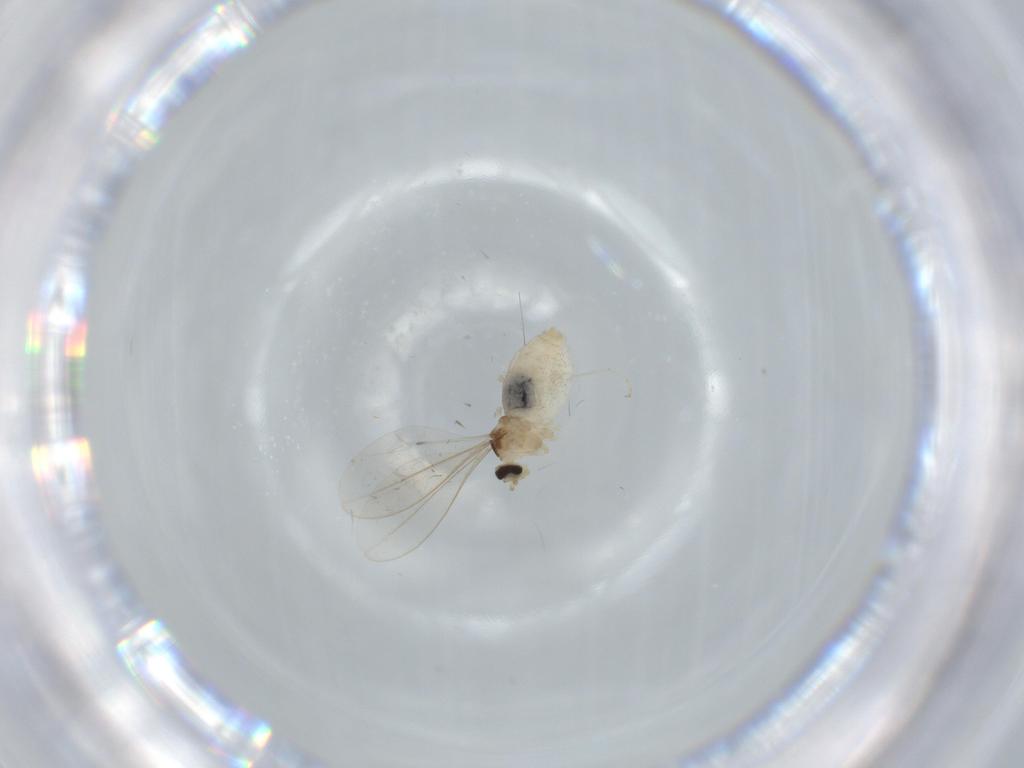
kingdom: Animalia
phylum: Arthropoda
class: Insecta
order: Diptera
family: Cecidomyiidae
